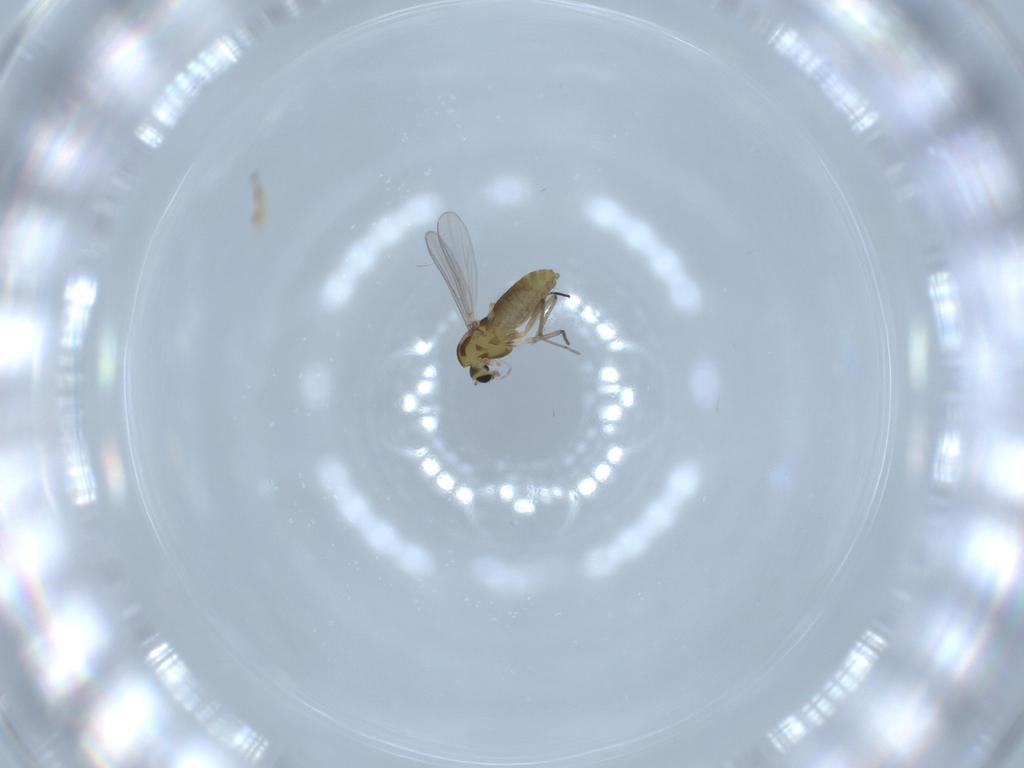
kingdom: Animalia
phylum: Arthropoda
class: Insecta
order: Diptera
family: Chironomidae
